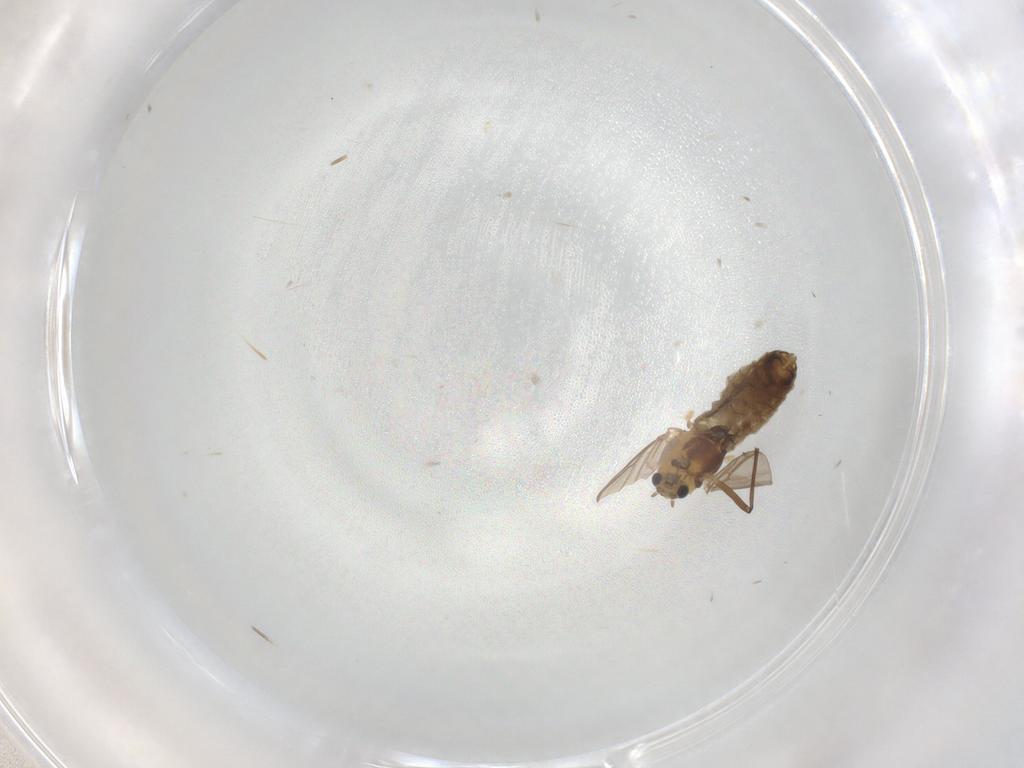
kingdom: Animalia
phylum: Arthropoda
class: Insecta
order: Diptera
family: Chironomidae
